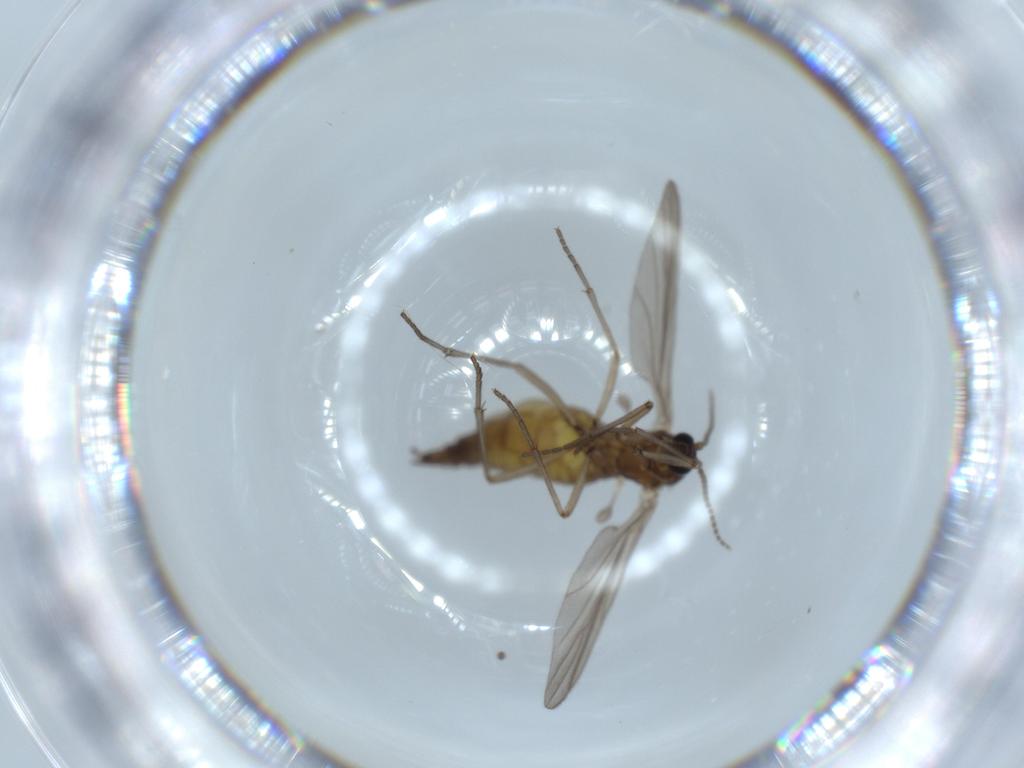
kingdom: Animalia
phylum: Arthropoda
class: Insecta
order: Diptera
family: Sciaridae
